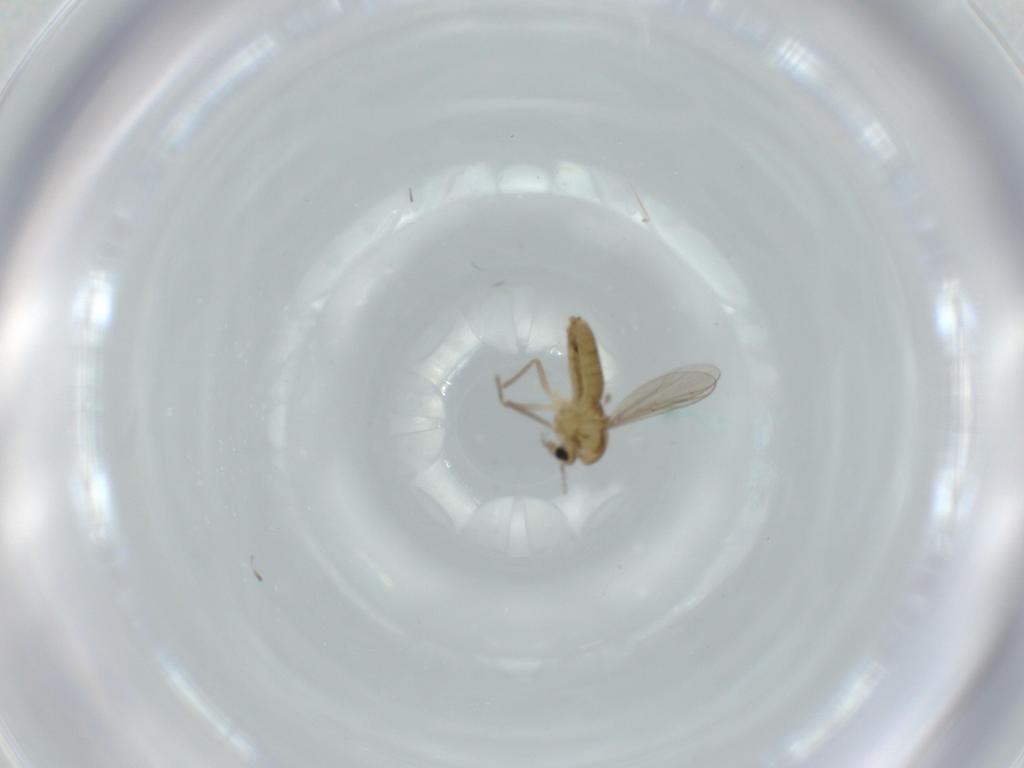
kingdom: Animalia
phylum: Arthropoda
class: Insecta
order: Diptera
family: Chironomidae
